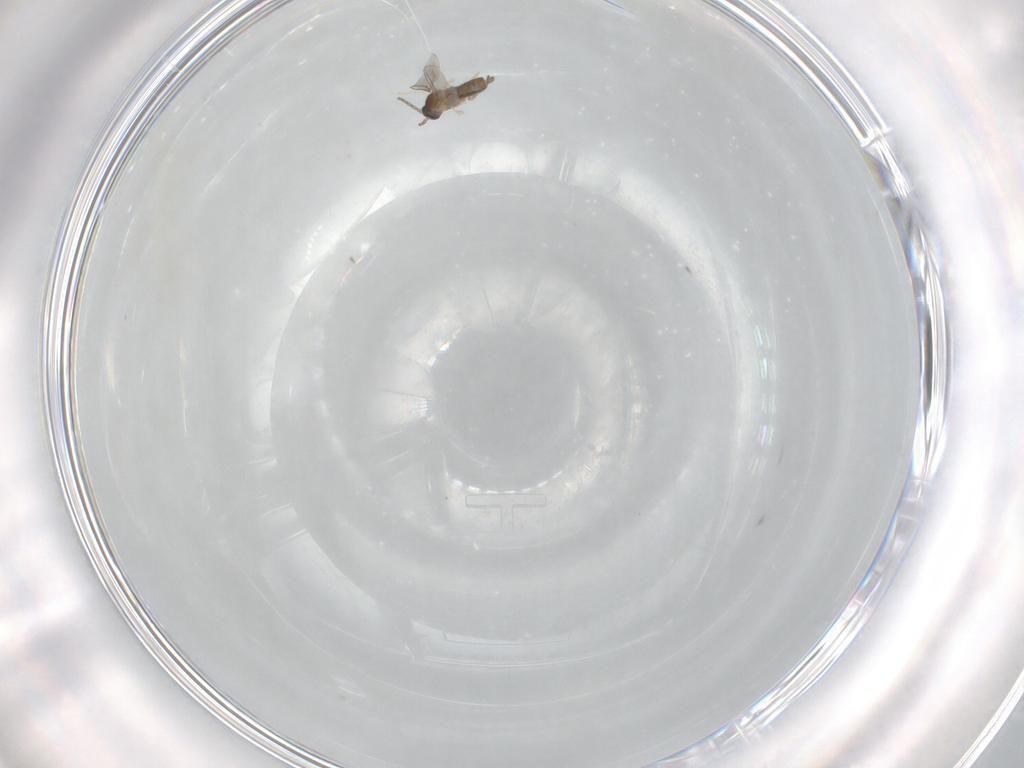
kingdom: Animalia
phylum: Arthropoda
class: Insecta
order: Diptera
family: Cecidomyiidae
